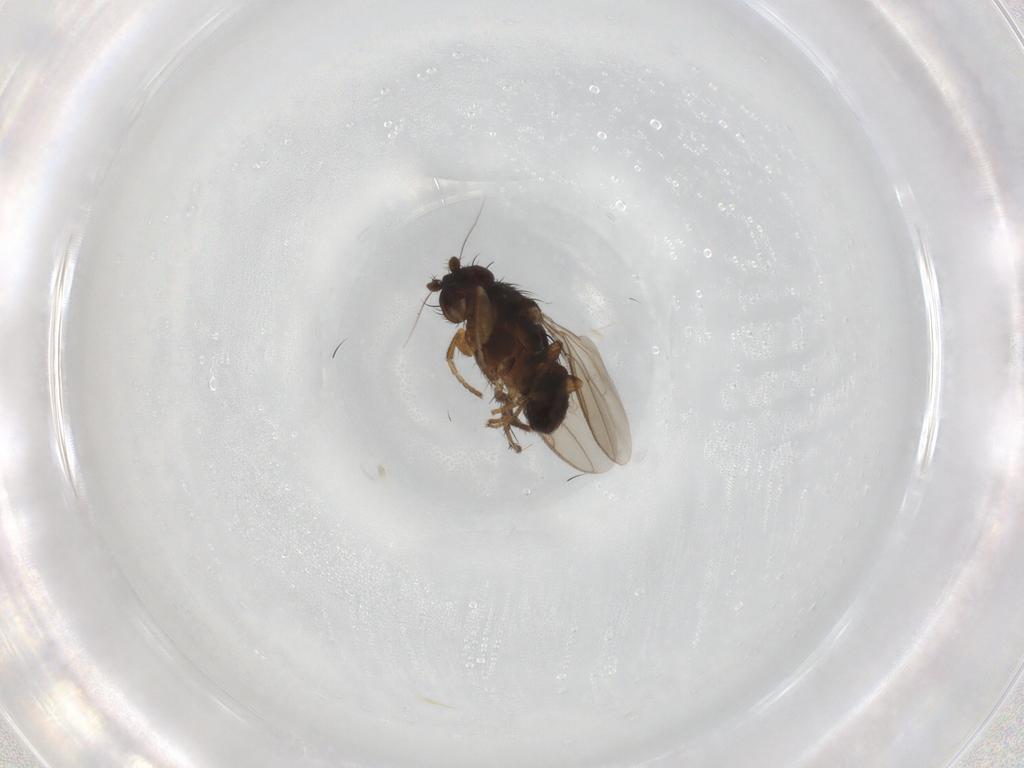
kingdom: Animalia
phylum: Arthropoda
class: Insecta
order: Diptera
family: Sphaeroceridae
